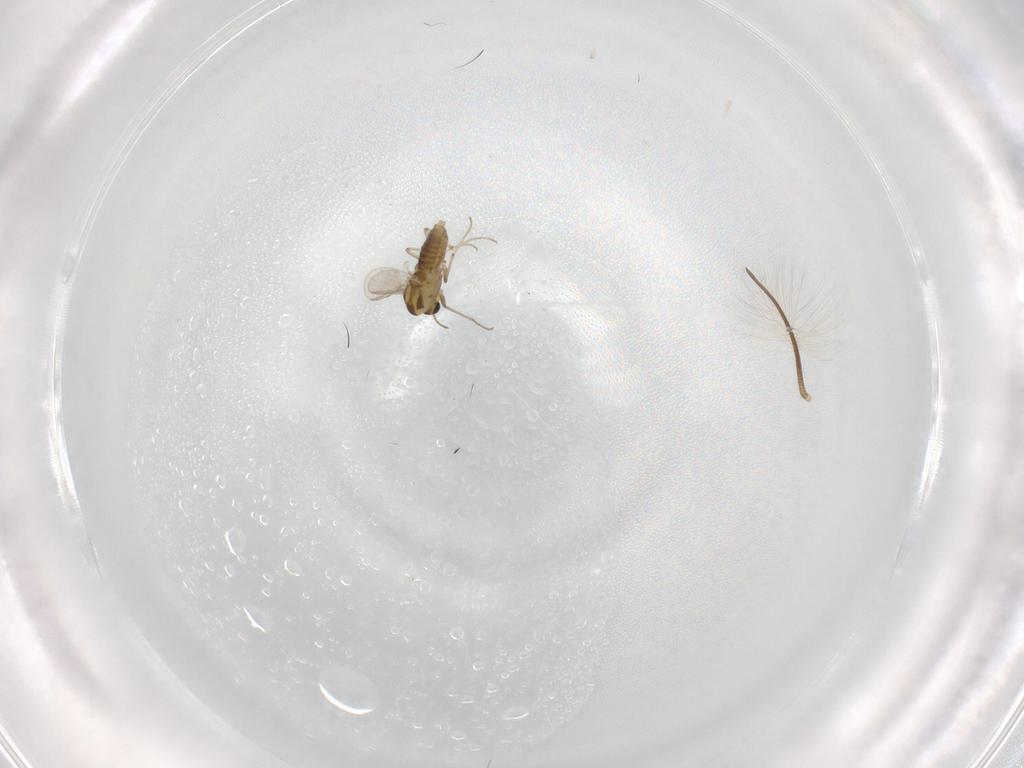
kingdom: Animalia
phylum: Arthropoda
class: Insecta
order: Diptera
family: Chironomidae
